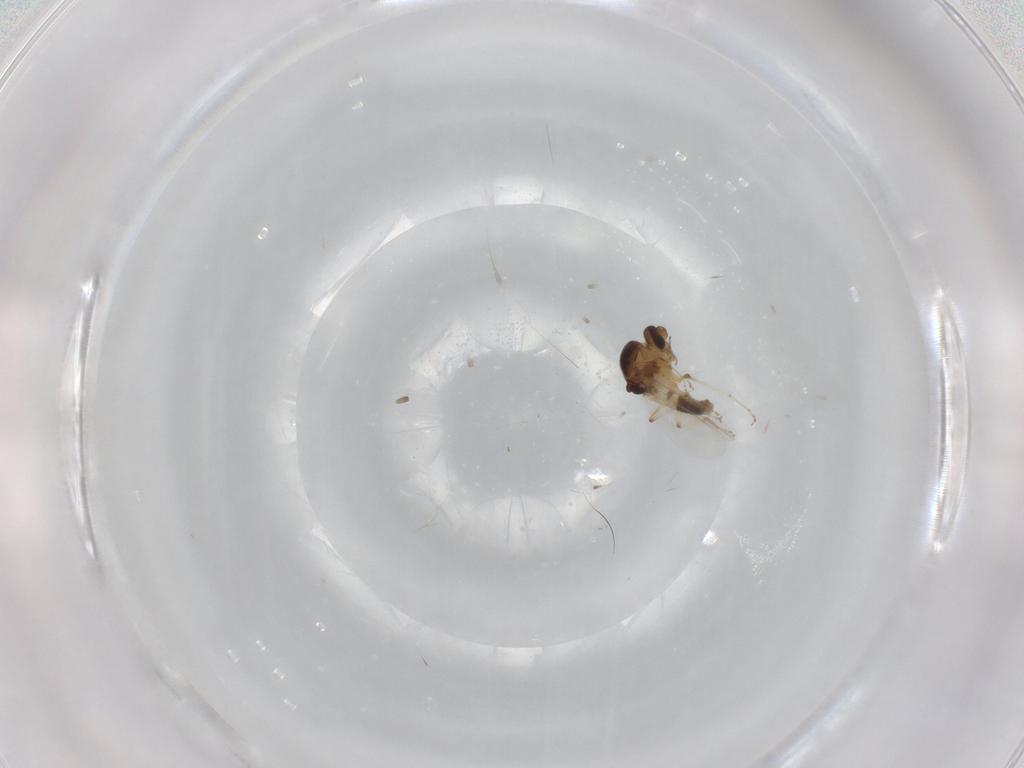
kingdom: Animalia
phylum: Arthropoda
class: Insecta
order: Diptera
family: Ceratopogonidae
